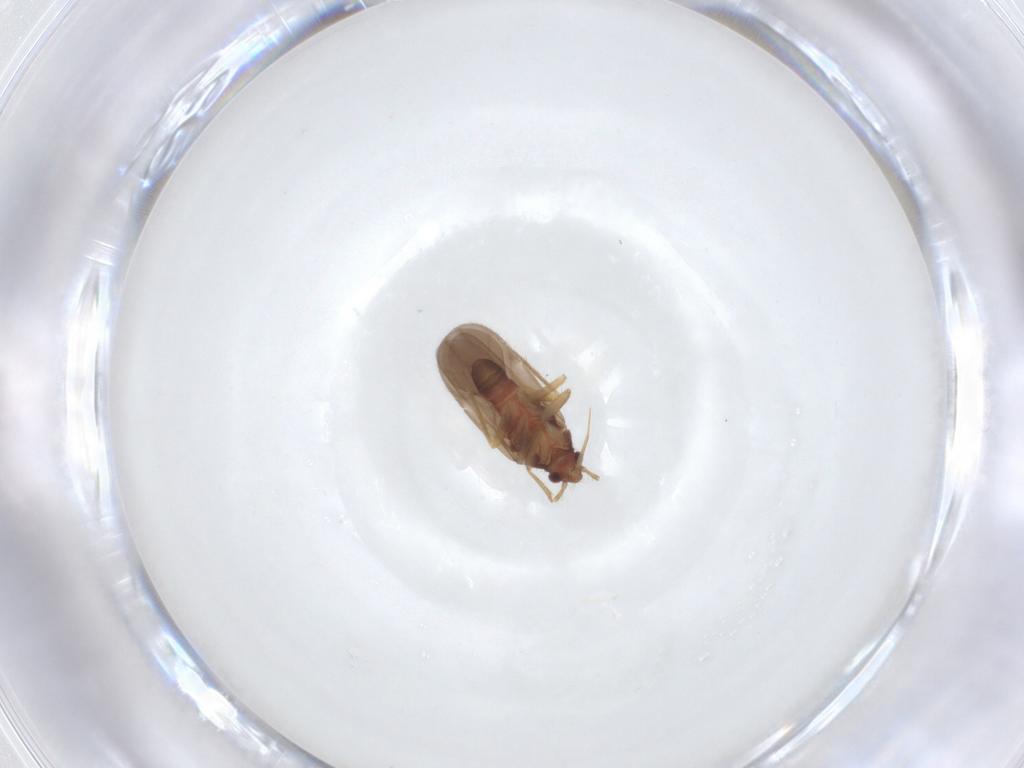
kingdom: Animalia
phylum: Arthropoda
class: Insecta
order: Hemiptera
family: Ceratocombidae
